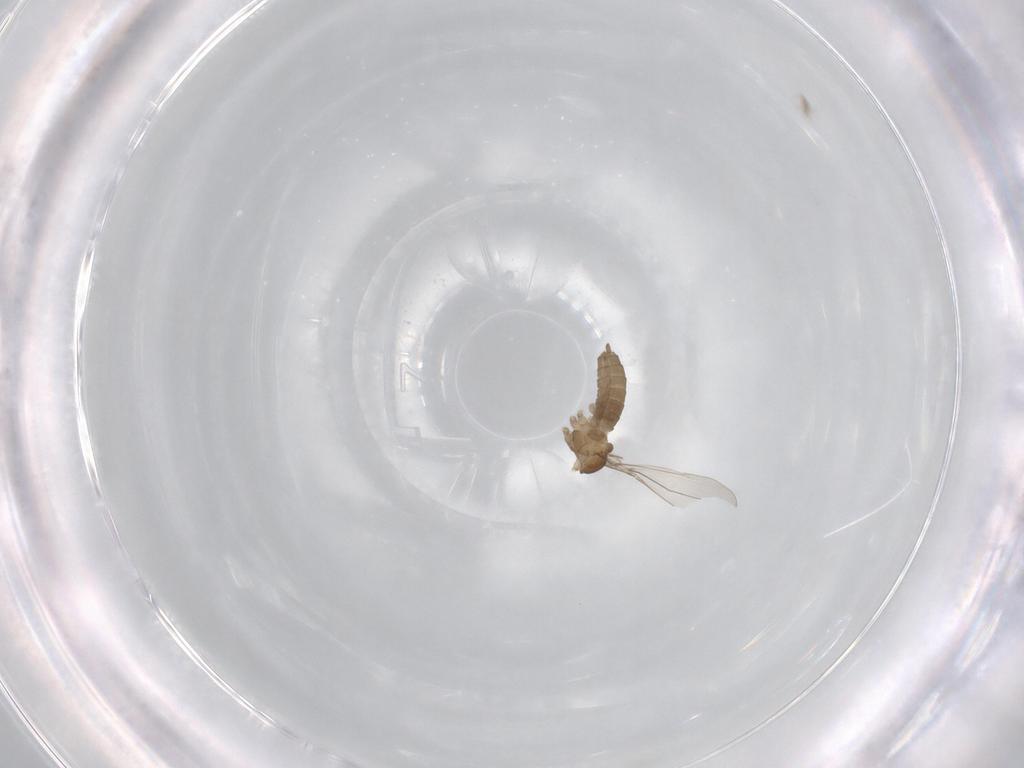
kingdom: Animalia
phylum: Arthropoda
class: Insecta
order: Diptera
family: Cecidomyiidae
